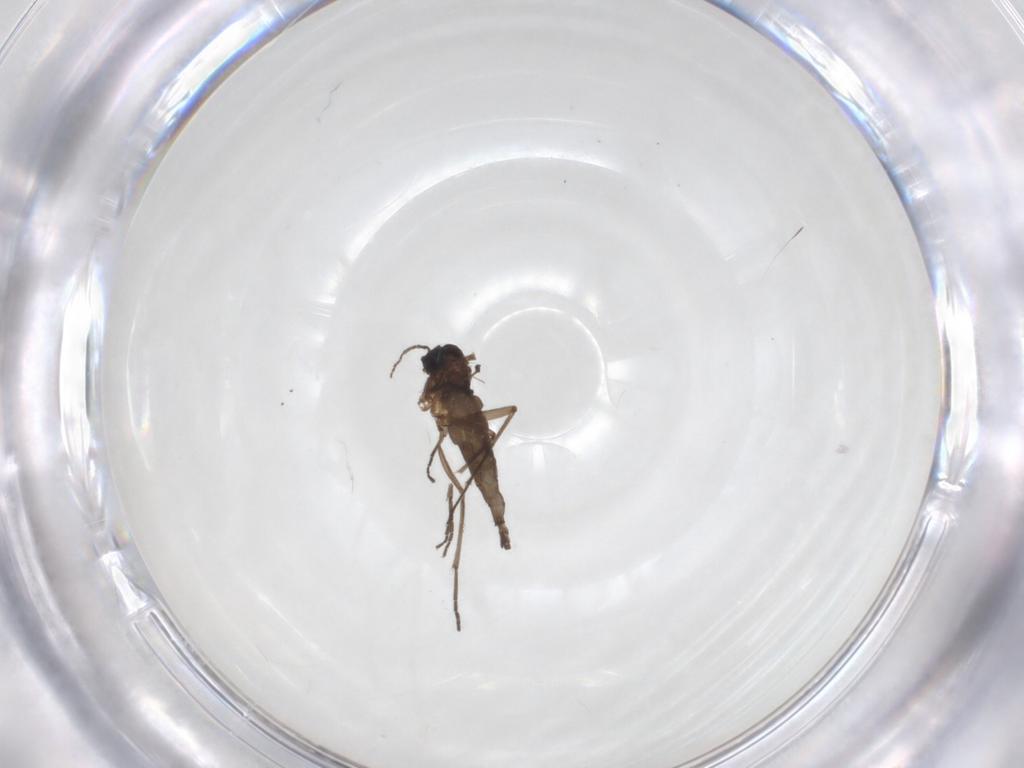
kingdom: Animalia
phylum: Arthropoda
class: Insecta
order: Diptera
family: Sciaridae
